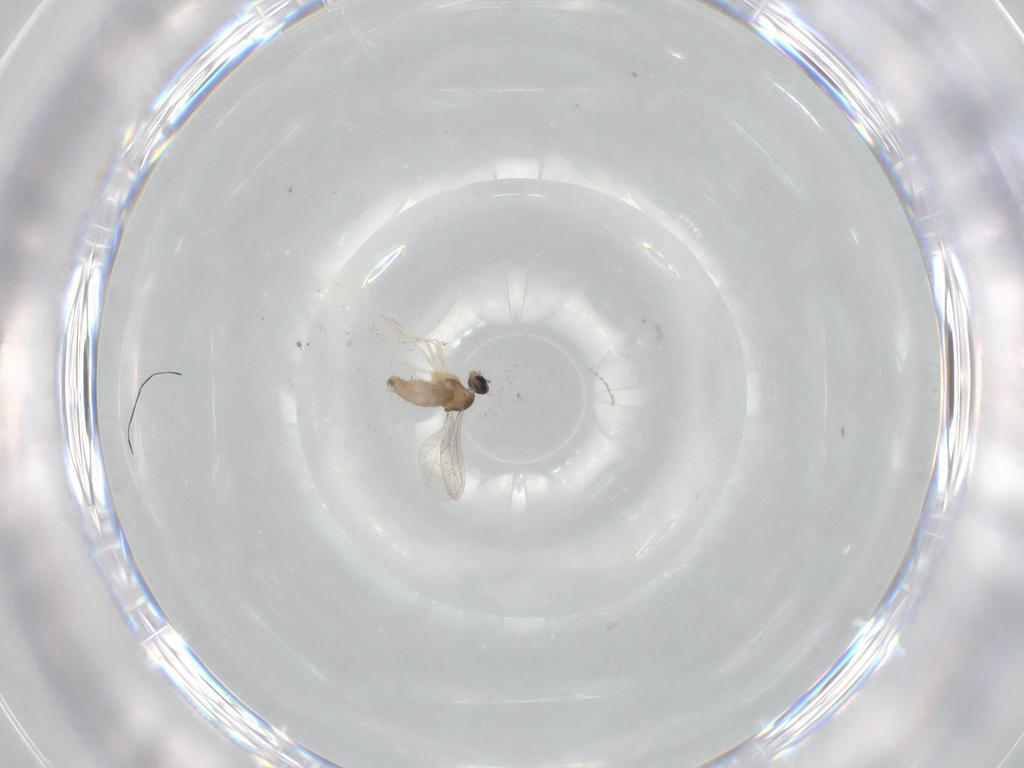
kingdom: Animalia
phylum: Arthropoda
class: Insecta
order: Diptera
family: Cecidomyiidae
